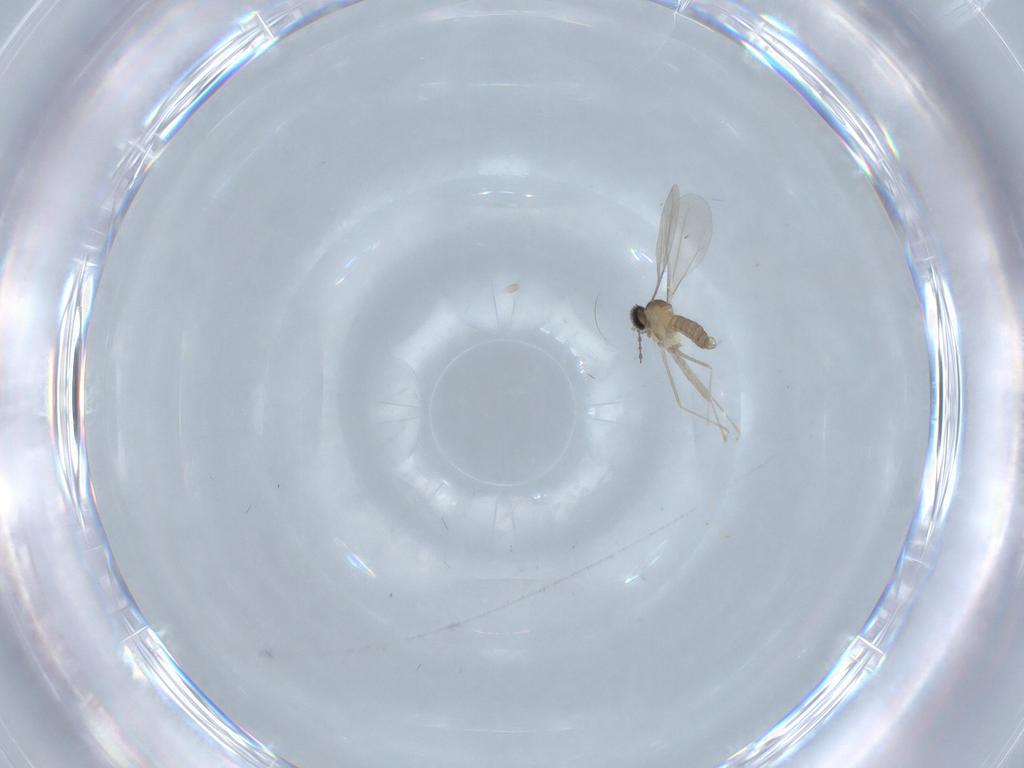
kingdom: Animalia
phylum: Arthropoda
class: Insecta
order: Diptera
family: Cecidomyiidae
